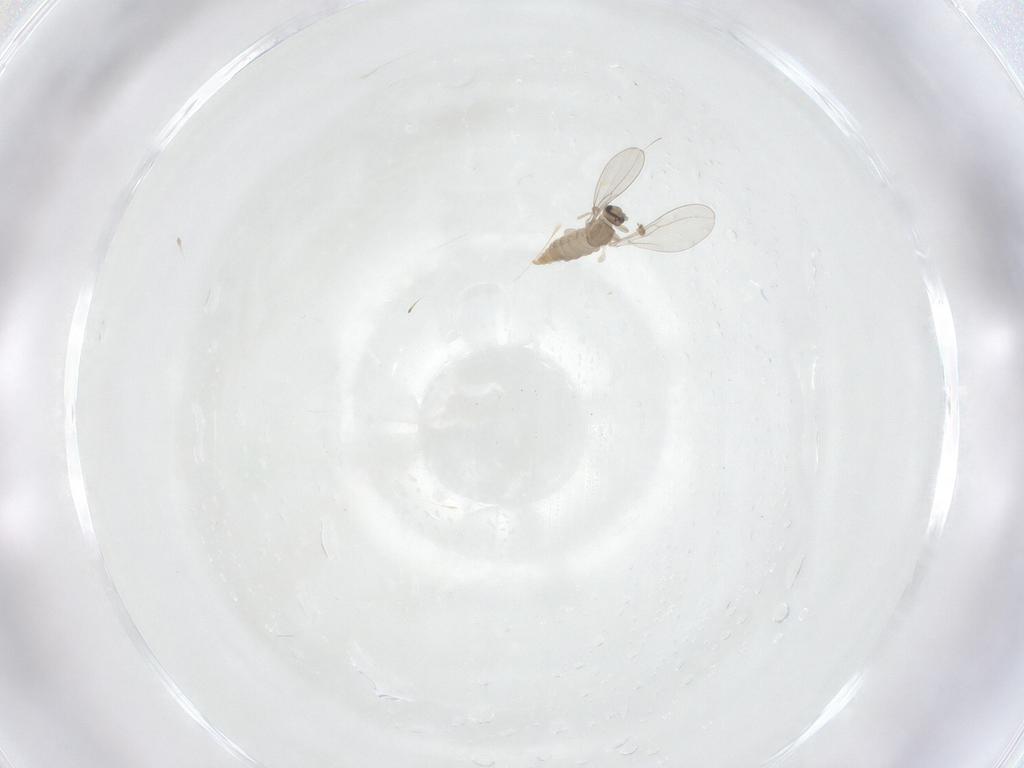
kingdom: Animalia
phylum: Arthropoda
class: Insecta
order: Diptera
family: Cecidomyiidae
